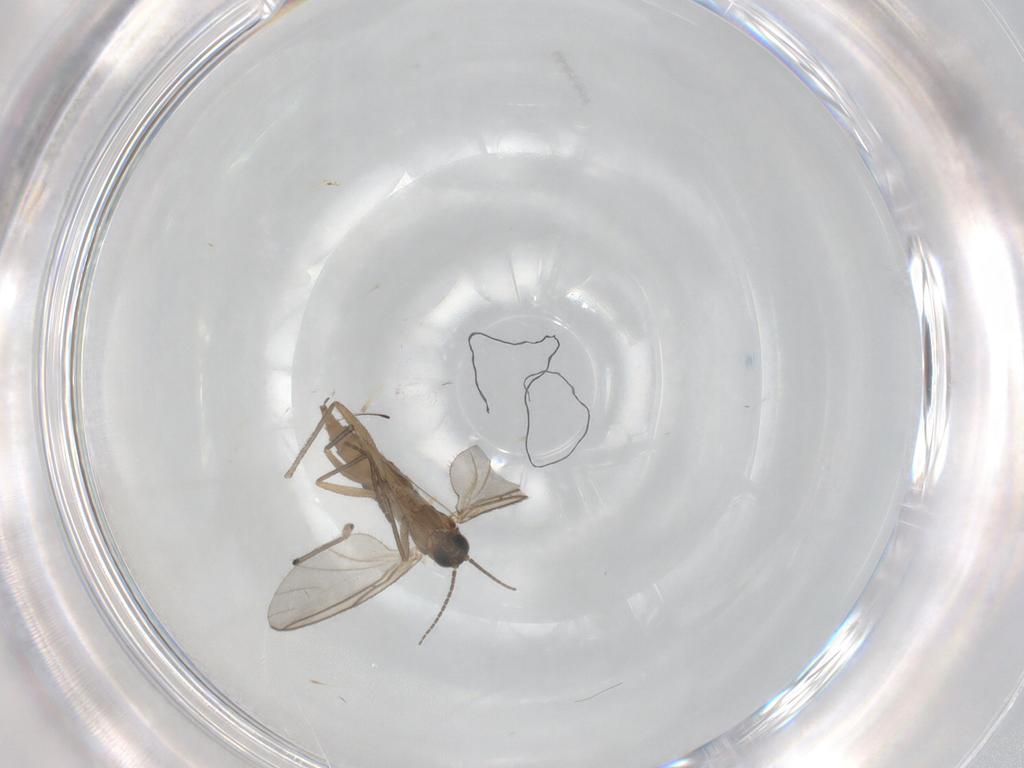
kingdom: Animalia
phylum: Arthropoda
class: Insecta
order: Diptera
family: Sciaridae
